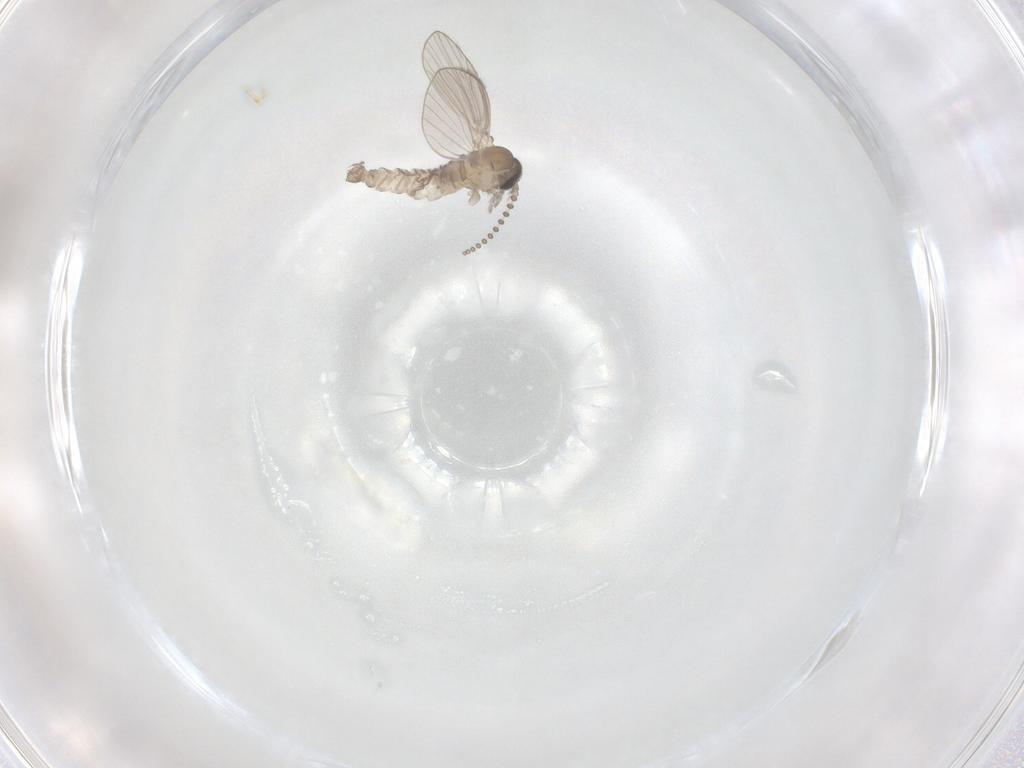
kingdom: Animalia
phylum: Arthropoda
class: Insecta
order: Diptera
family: Psychodidae
